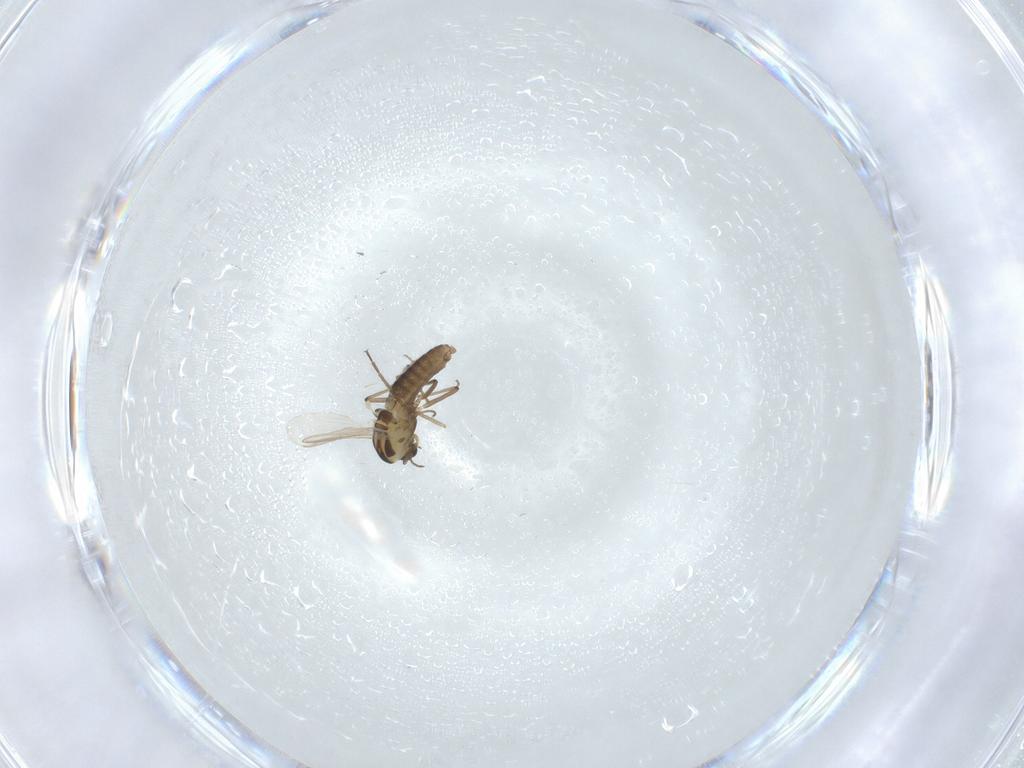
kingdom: Animalia
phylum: Arthropoda
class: Insecta
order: Diptera
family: Chironomidae
